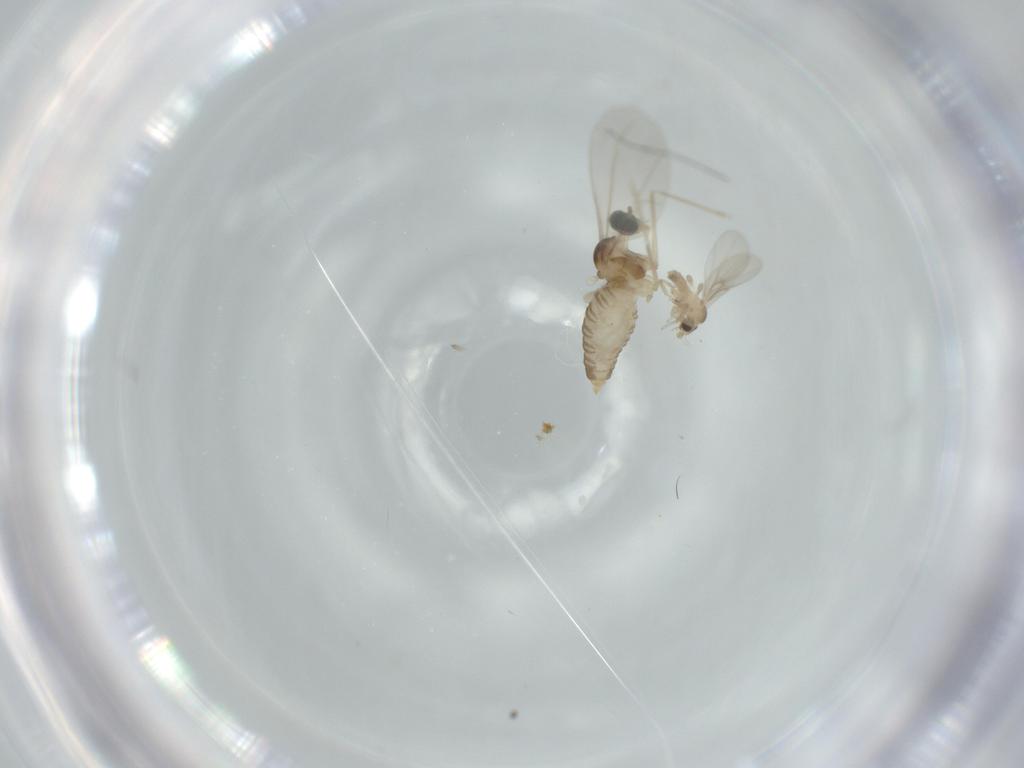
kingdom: Animalia
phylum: Arthropoda
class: Insecta
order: Diptera
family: Cecidomyiidae
